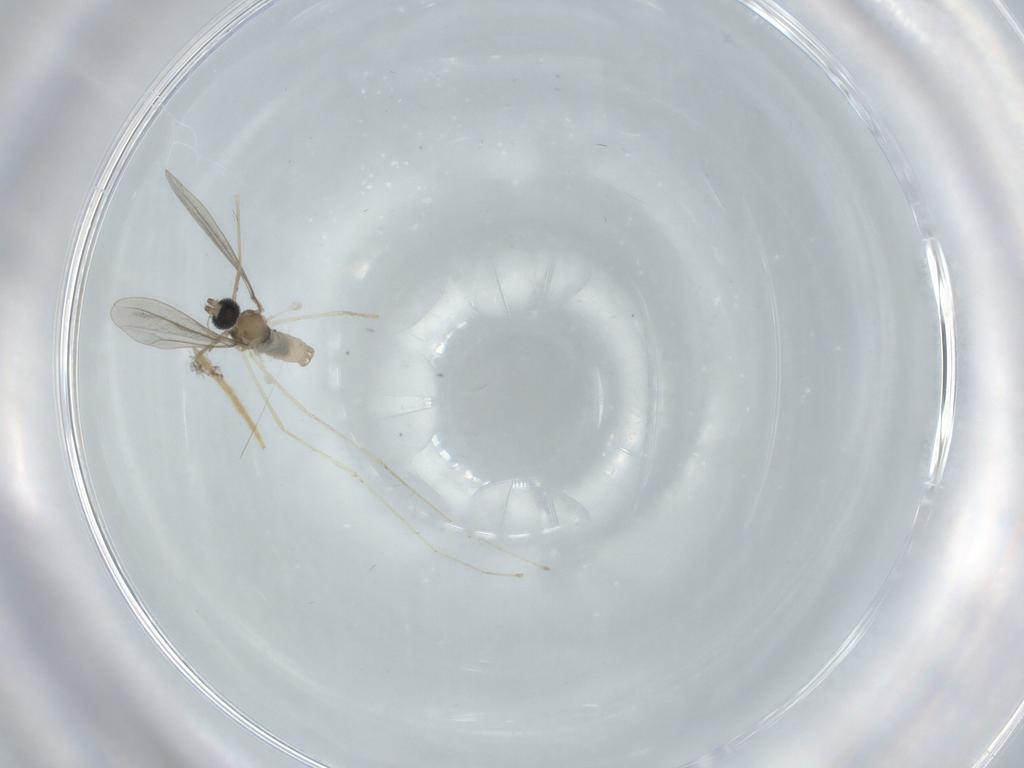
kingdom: Animalia
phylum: Arthropoda
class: Insecta
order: Diptera
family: Cecidomyiidae
